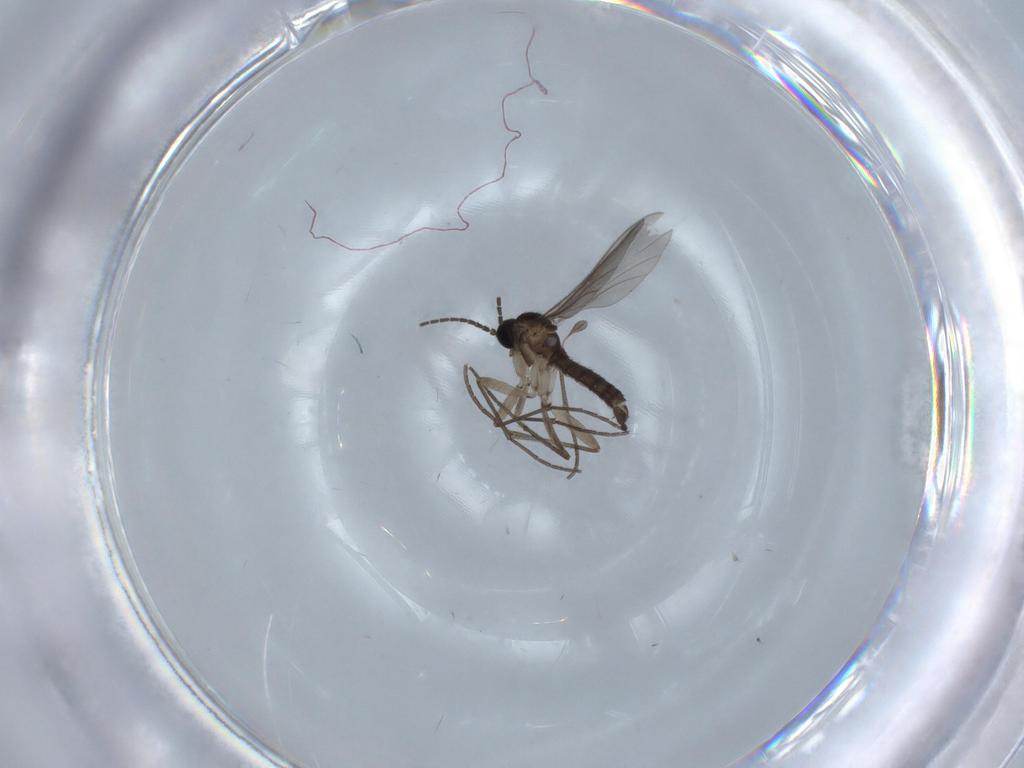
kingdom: Animalia
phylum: Arthropoda
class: Insecta
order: Diptera
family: Sciaridae
